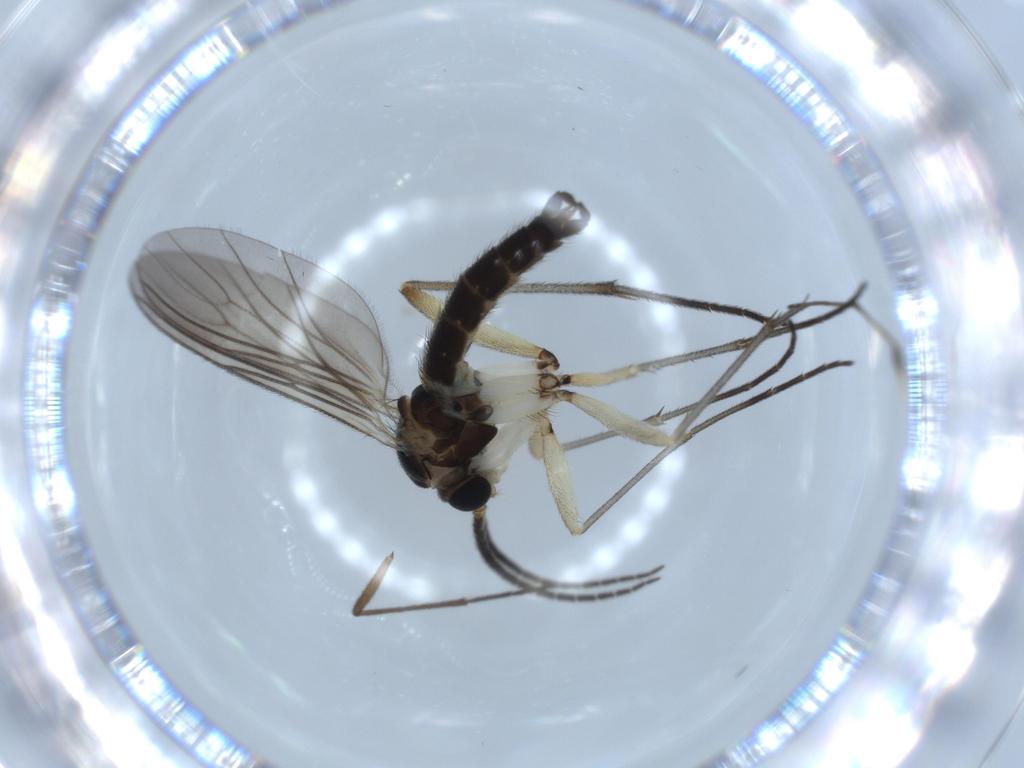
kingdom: Animalia
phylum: Arthropoda
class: Insecta
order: Diptera
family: Sciaridae
